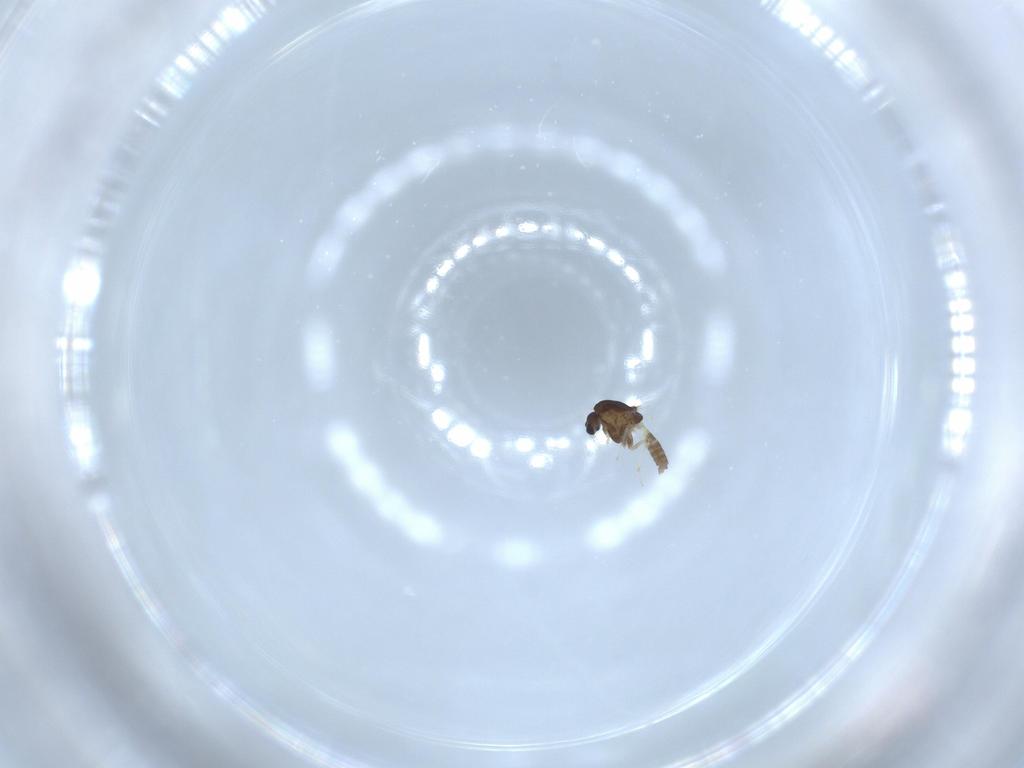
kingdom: Animalia
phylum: Arthropoda
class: Insecta
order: Diptera
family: Chironomidae
